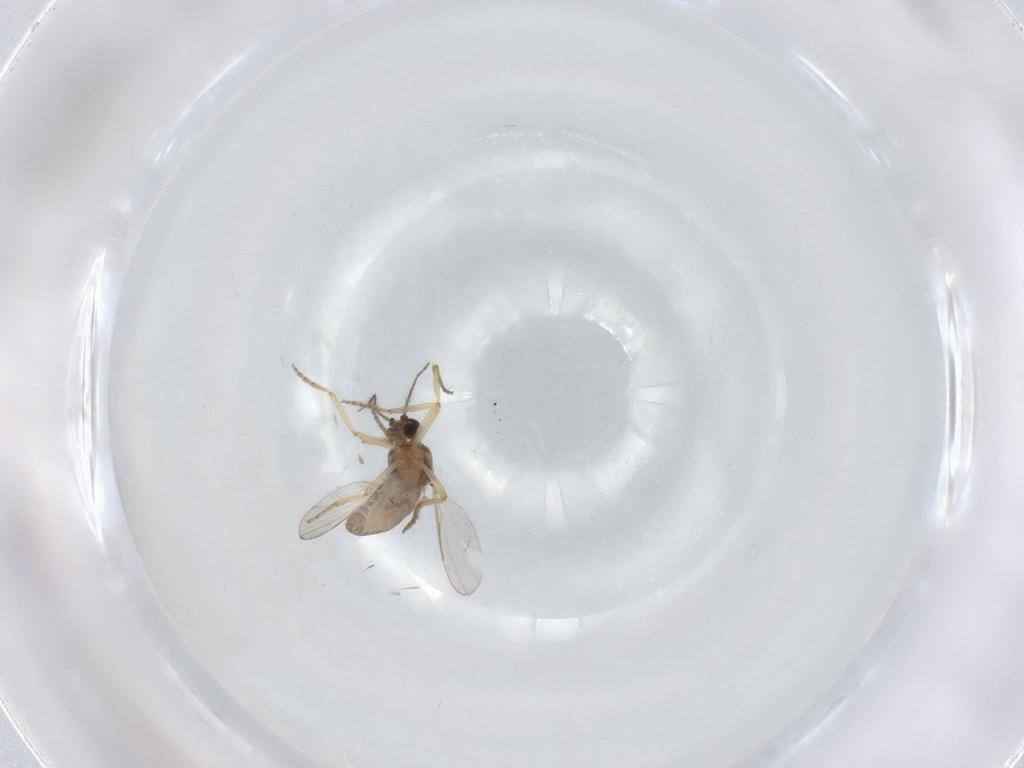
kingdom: Animalia
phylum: Arthropoda
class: Insecta
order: Diptera
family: Ceratopogonidae
